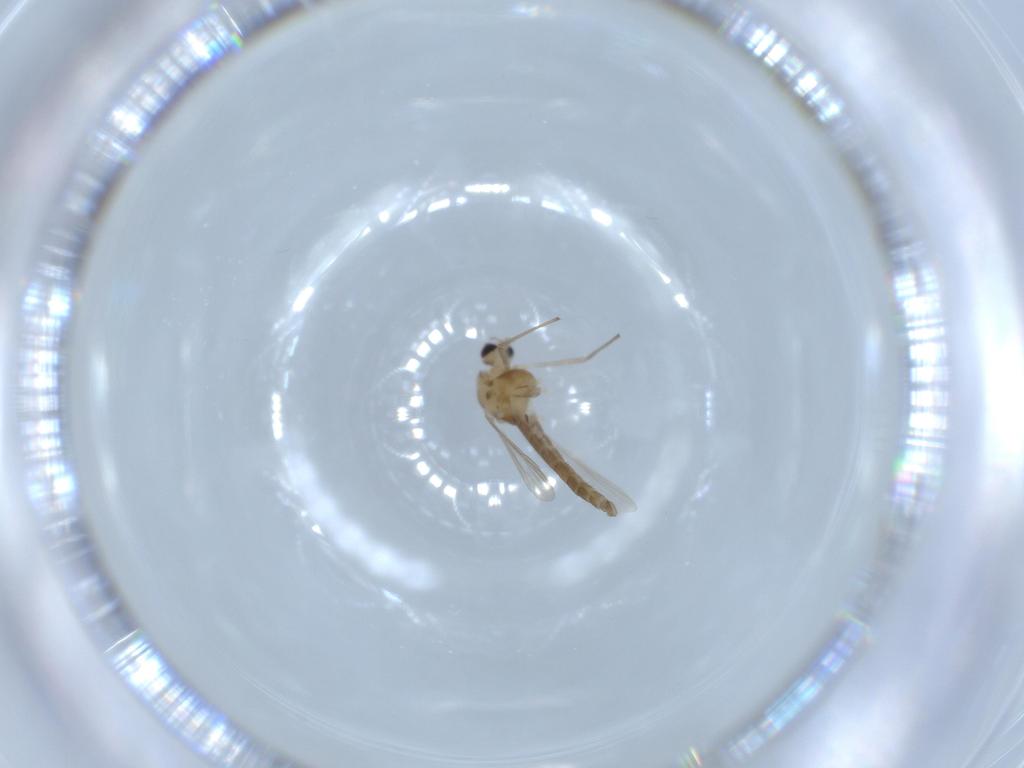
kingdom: Animalia
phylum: Arthropoda
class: Insecta
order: Diptera
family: Chironomidae
